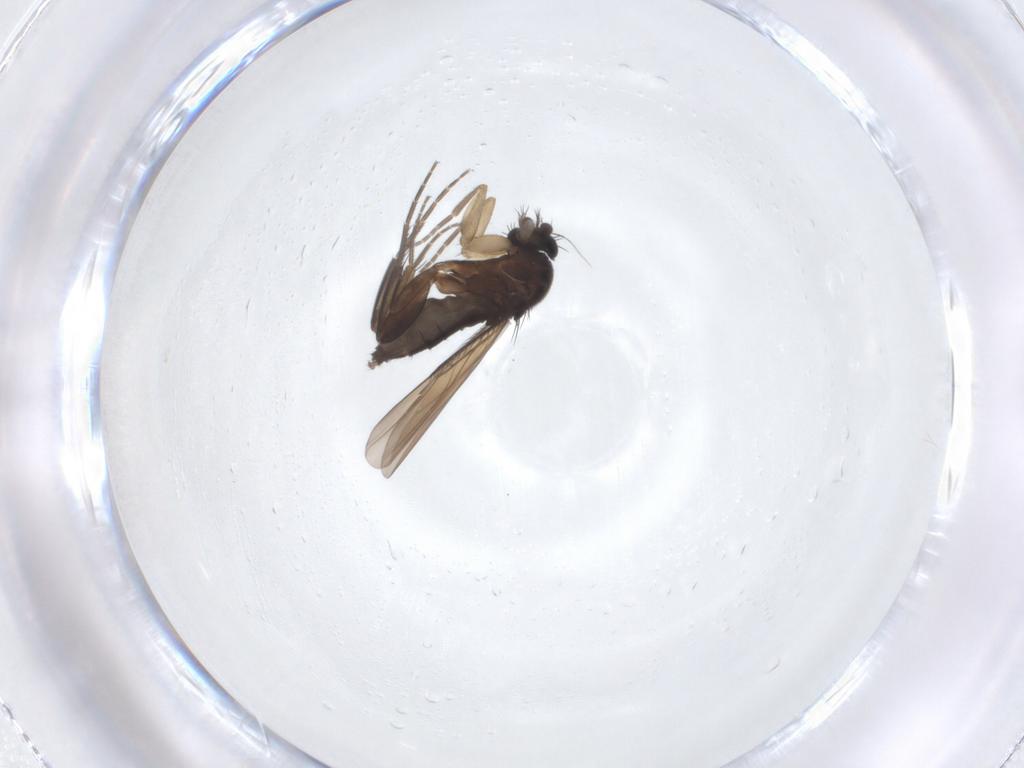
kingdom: Animalia
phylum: Arthropoda
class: Insecta
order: Diptera
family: Phoridae
